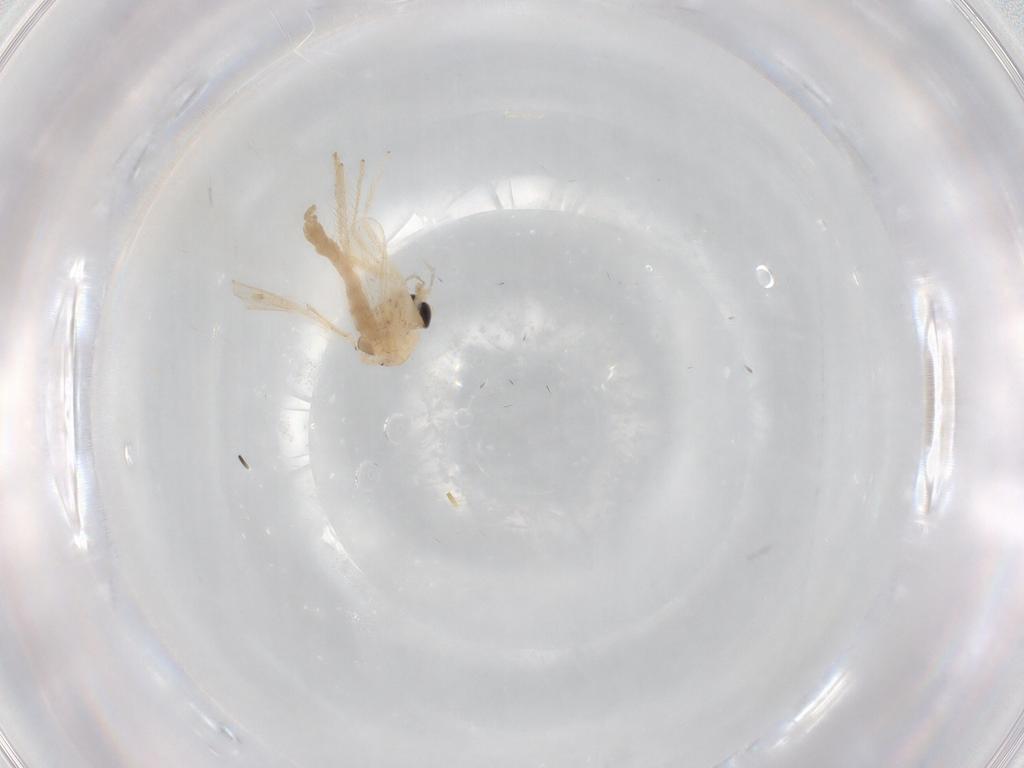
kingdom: Animalia
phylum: Arthropoda
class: Insecta
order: Diptera
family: Chironomidae
